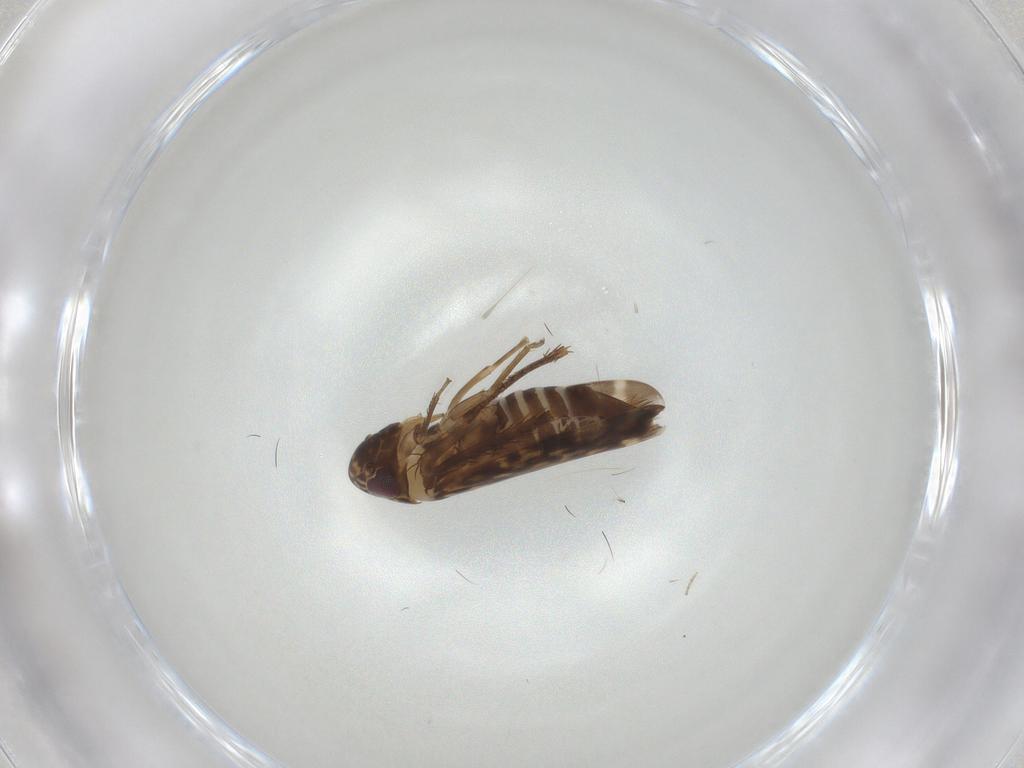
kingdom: Animalia
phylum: Arthropoda
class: Insecta
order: Hemiptera
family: Cicadellidae
